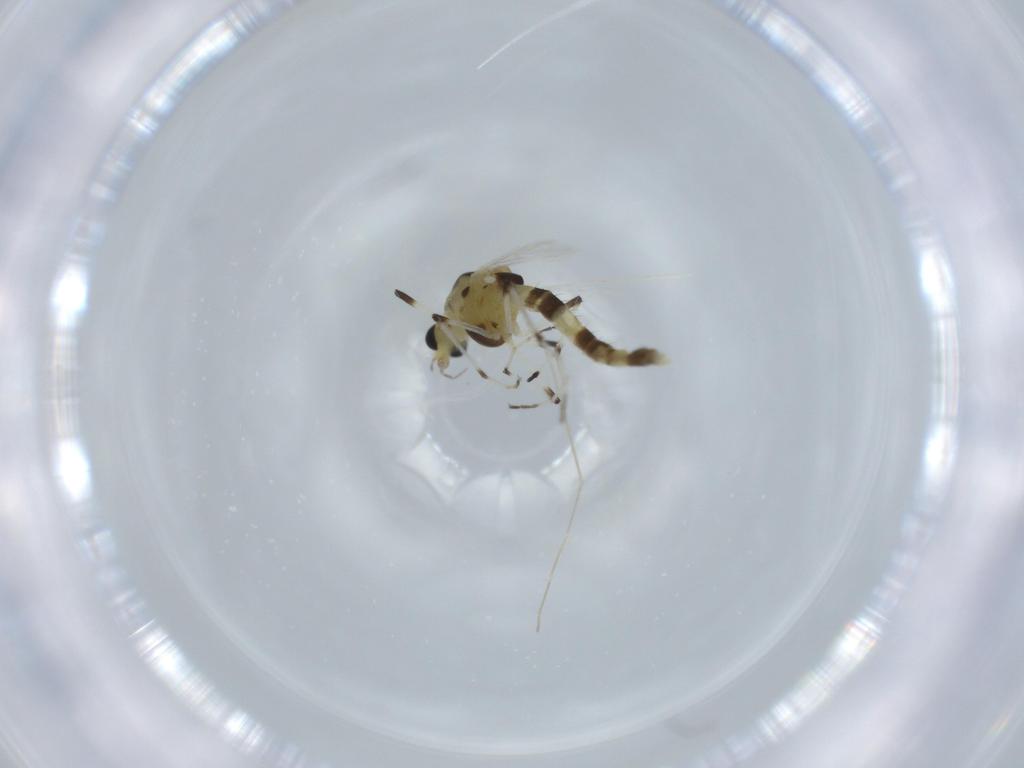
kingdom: Animalia
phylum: Arthropoda
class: Insecta
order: Diptera
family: Chironomidae
